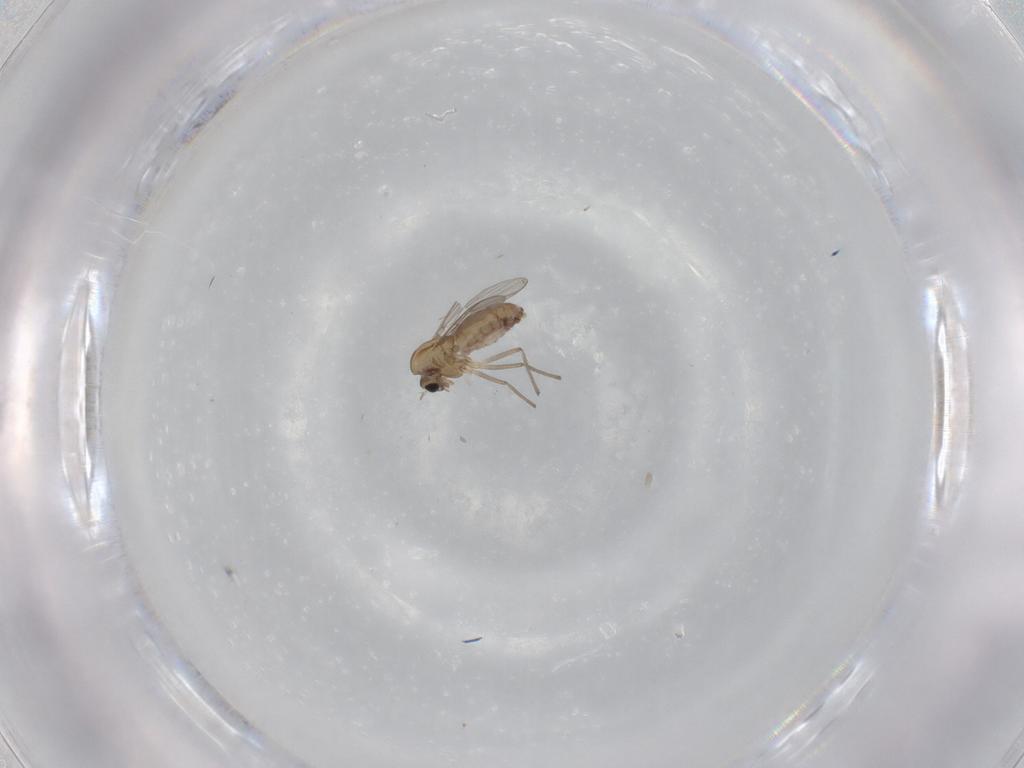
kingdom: Animalia
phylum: Arthropoda
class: Insecta
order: Diptera
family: Chironomidae
